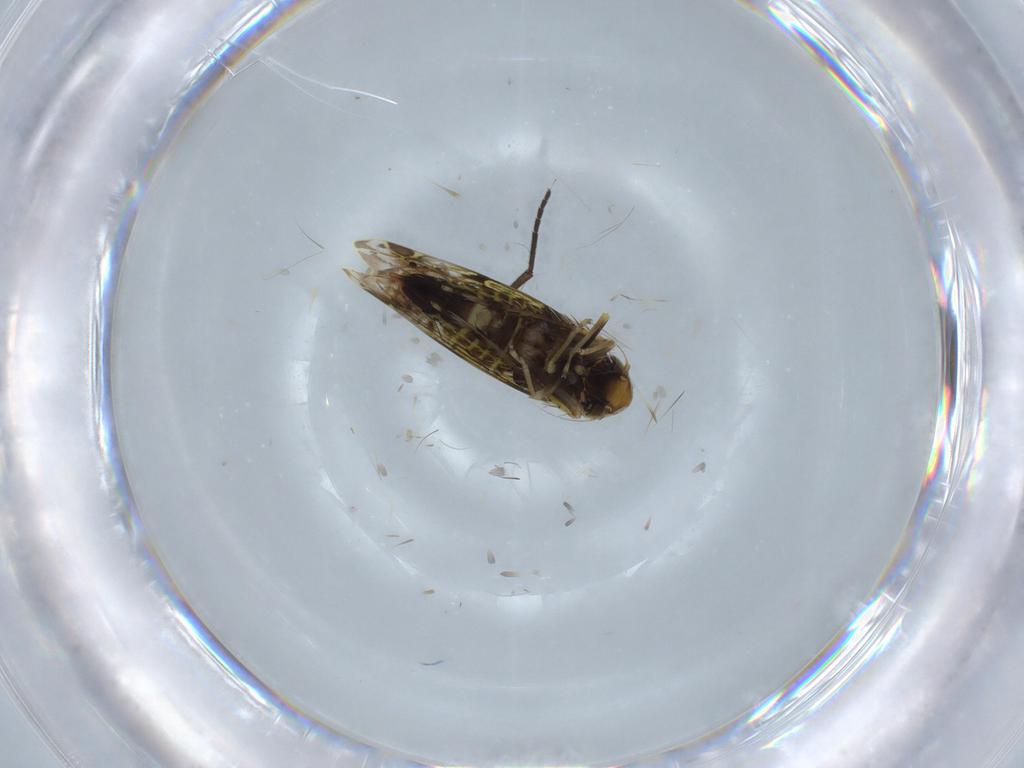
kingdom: Animalia
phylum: Arthropoda
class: Insecta
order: Hemiptera
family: Cicadellidae
